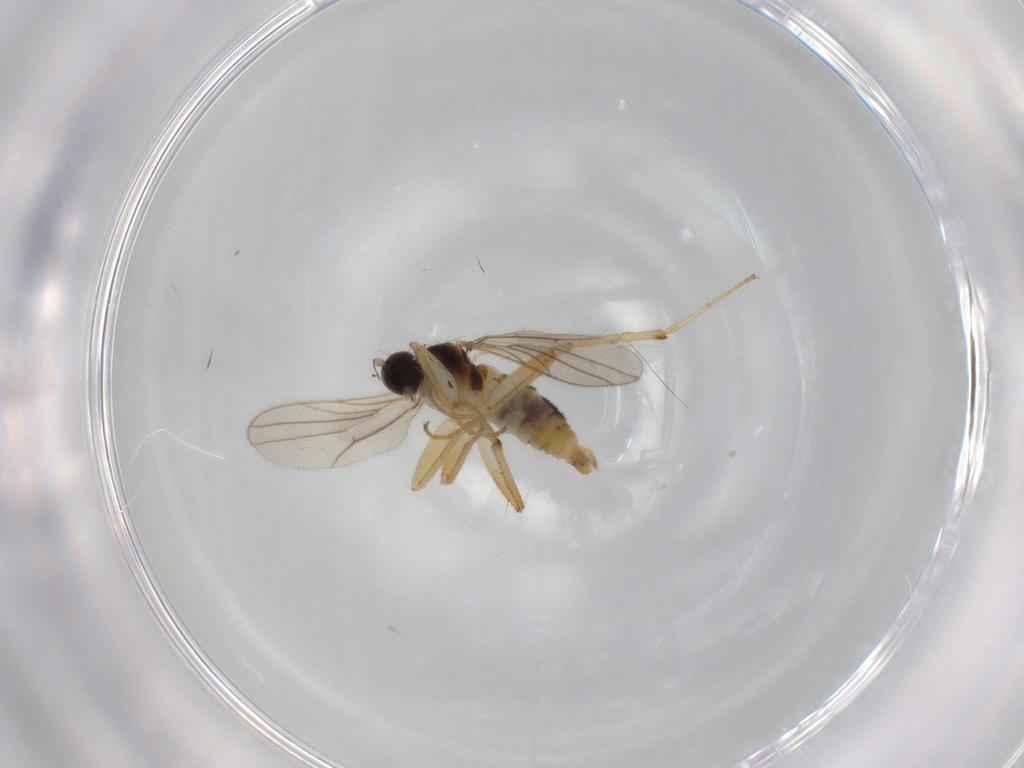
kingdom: Animalia
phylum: Arthropoda
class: Insecta
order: Diptera
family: Hybotidae
